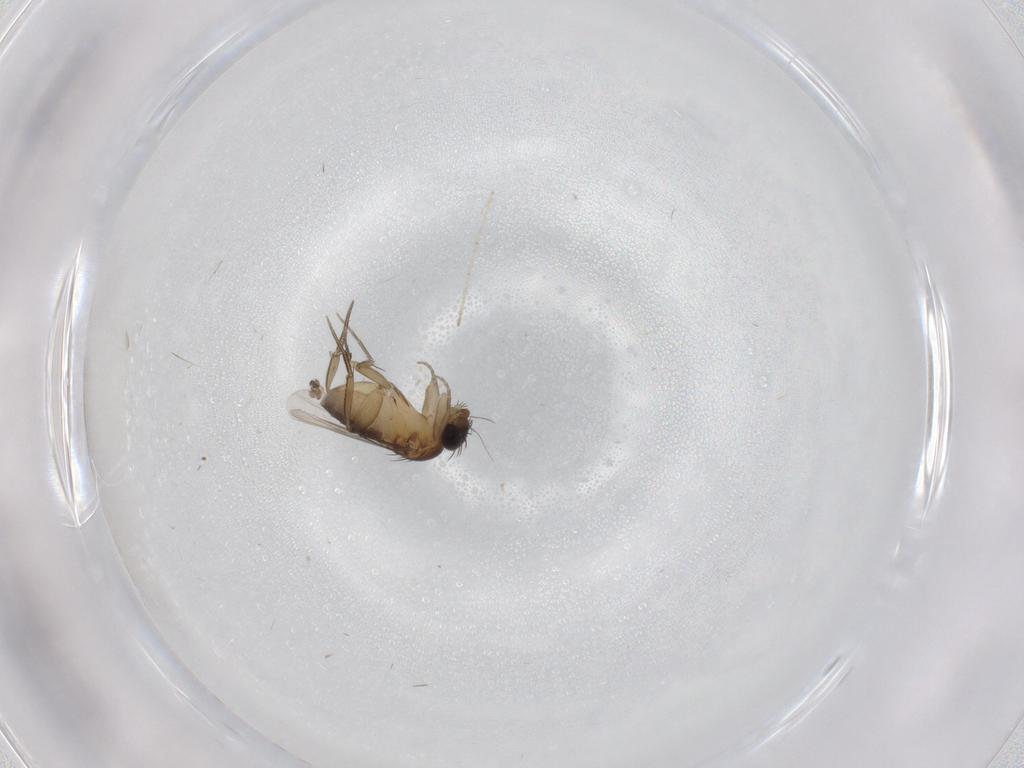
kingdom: Animalia
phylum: Arthropoda
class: Insecta
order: Diptera
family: Phoridae
